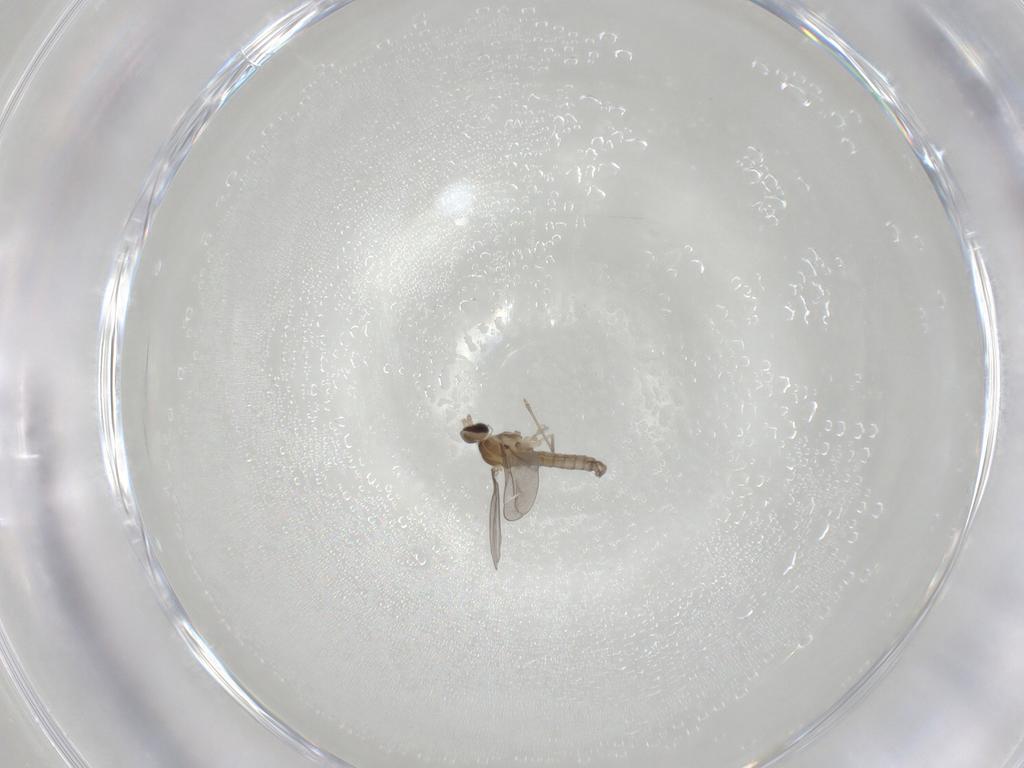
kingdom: Animalia
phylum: Arthropoda
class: Insecta
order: Diptera
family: Cecidomyiidae
